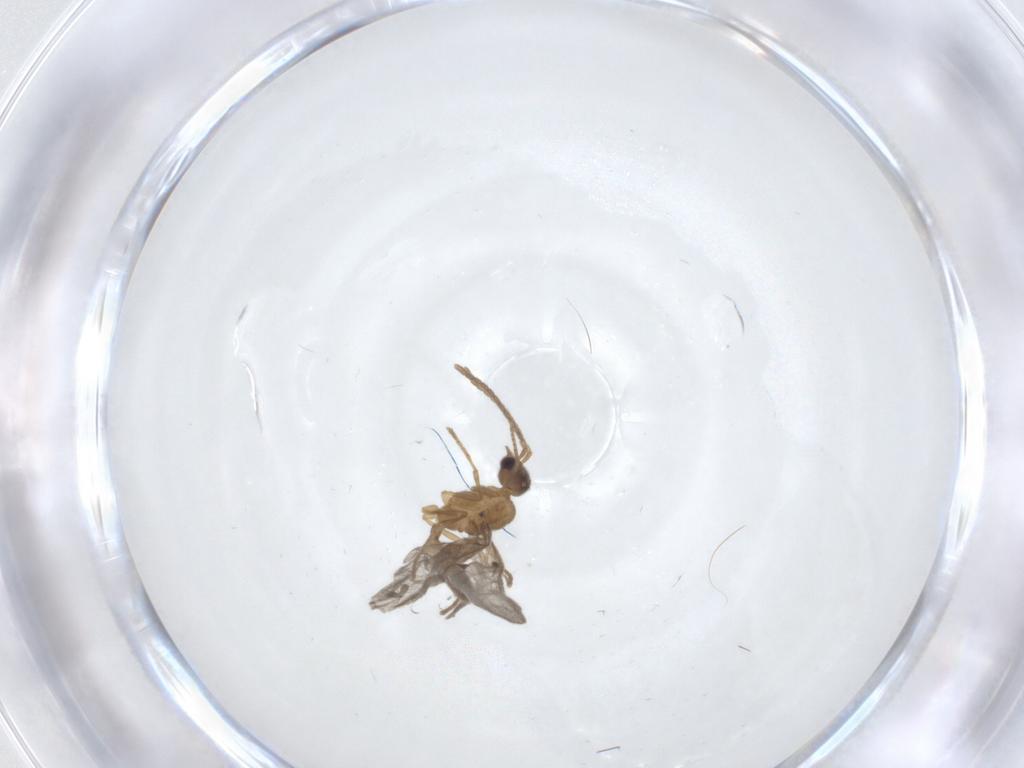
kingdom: Animalia
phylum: Arthropoda
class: Insecta
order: Hymenoptera
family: Formicidae
